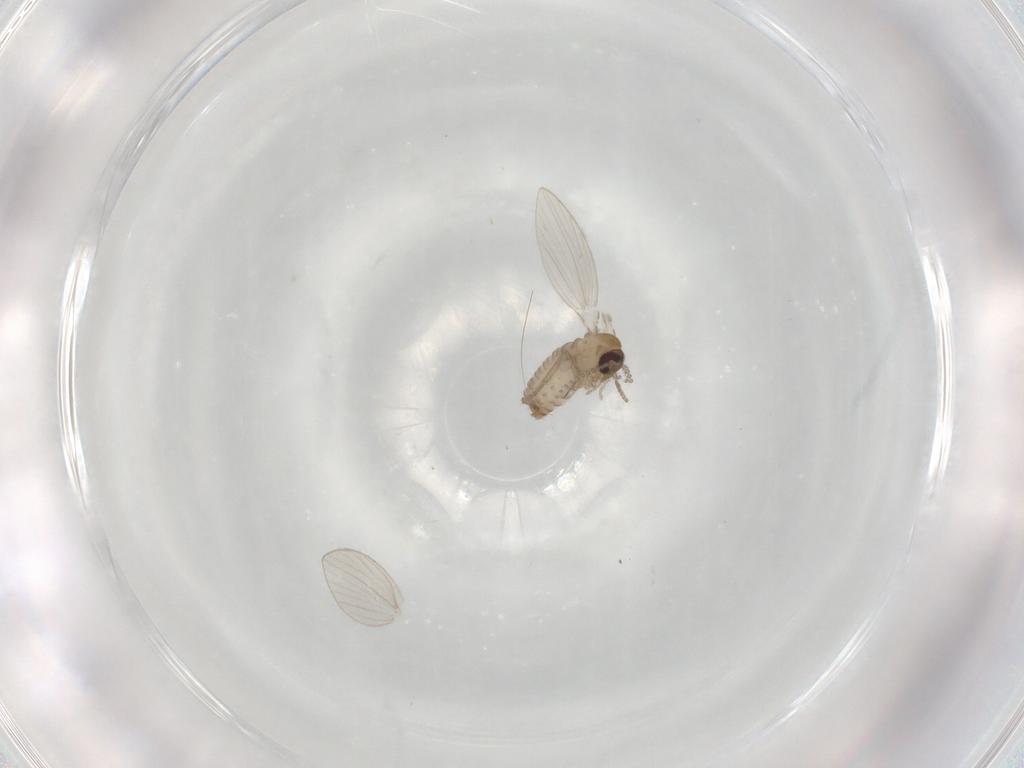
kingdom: Animalia
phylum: Arthropoda
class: Insecta
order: Diptera
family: Psychodidae
